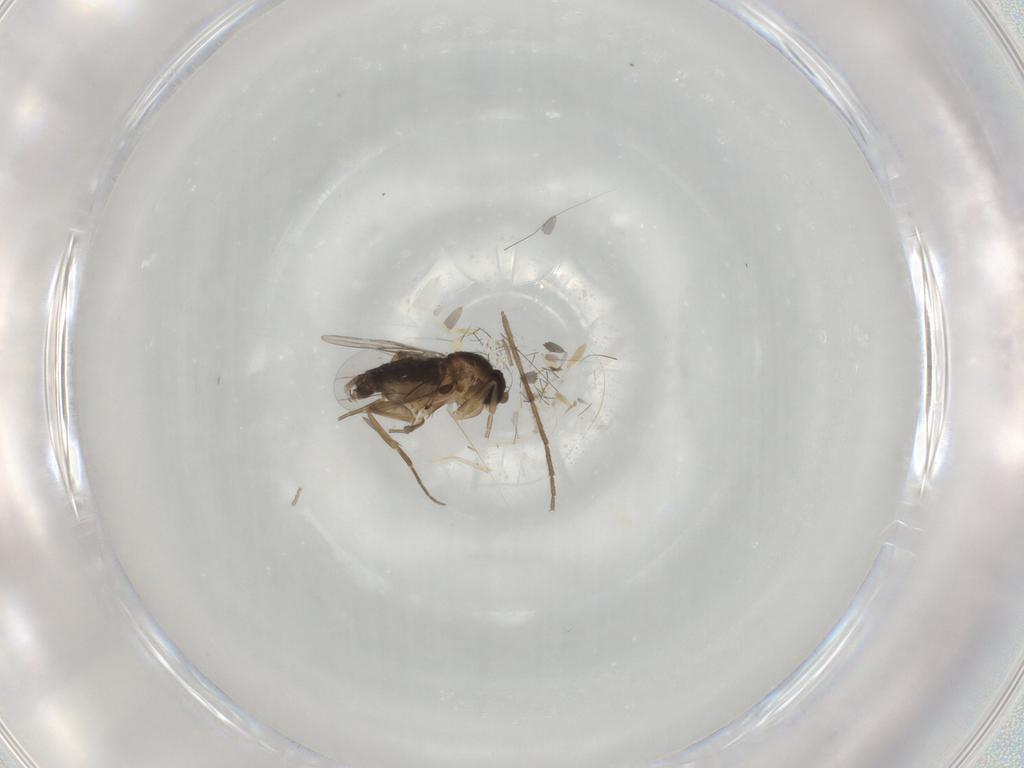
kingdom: Animalia
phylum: Arthropoda
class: Insecta
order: Diptera
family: Phoridae
